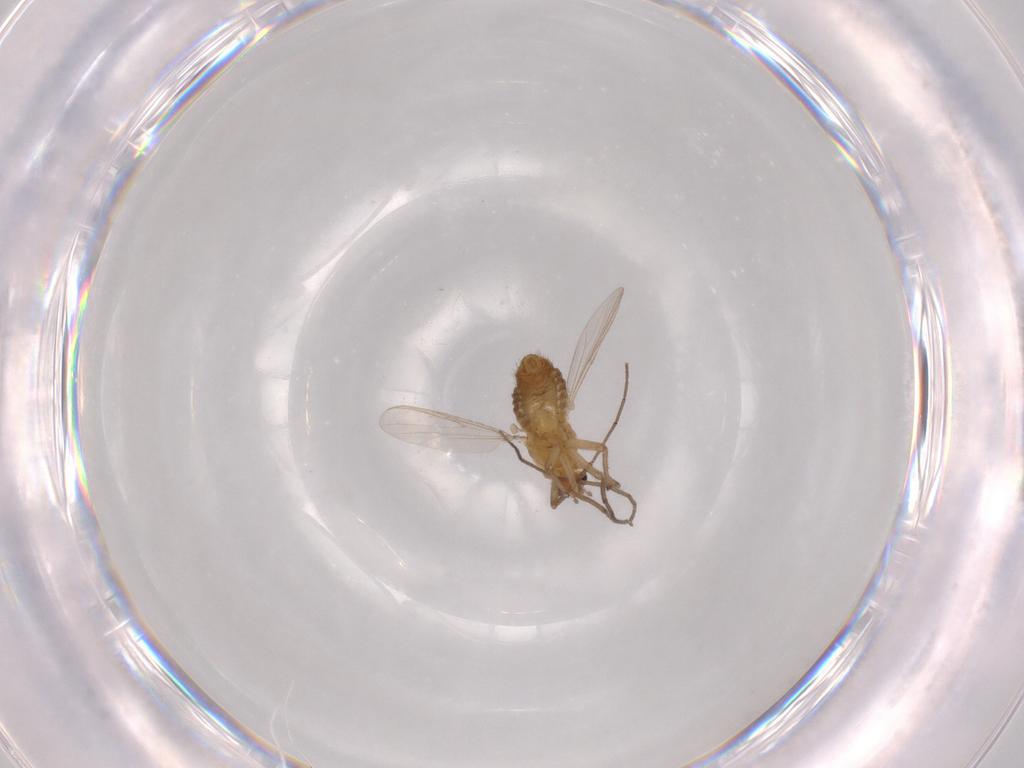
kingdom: Animalia
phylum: Arthropoda
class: Insecta
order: Diptera
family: Chironomidae
